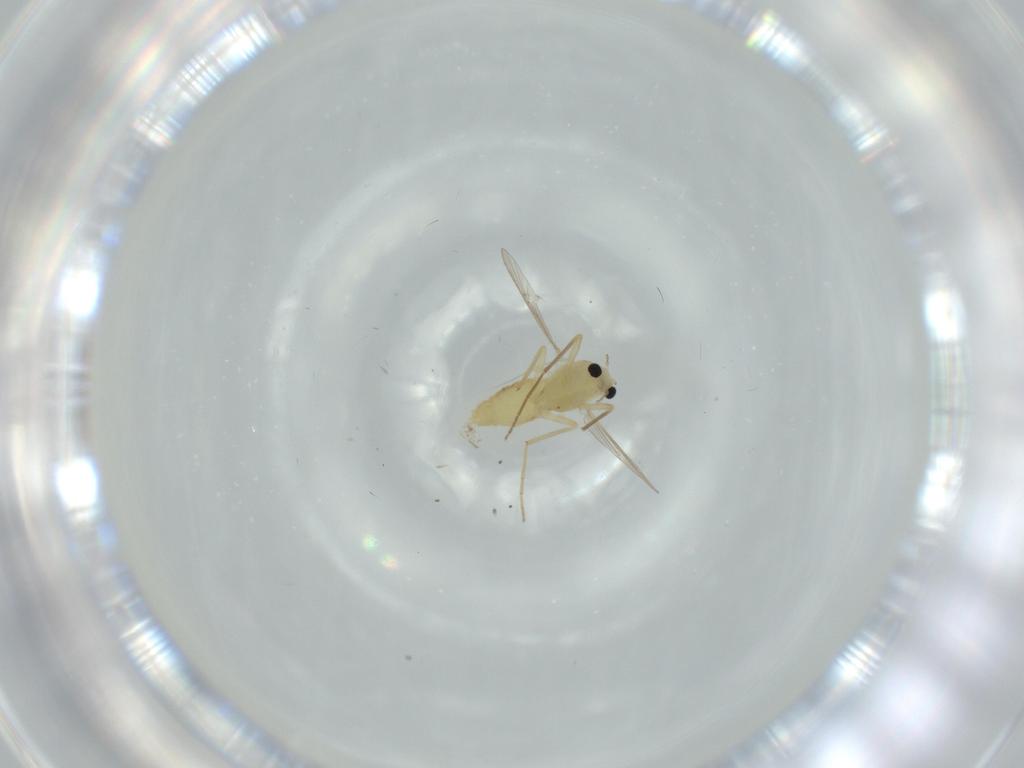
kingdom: Animalia
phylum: Arthropoda
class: Insecta
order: Diptera
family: Chironomidae
